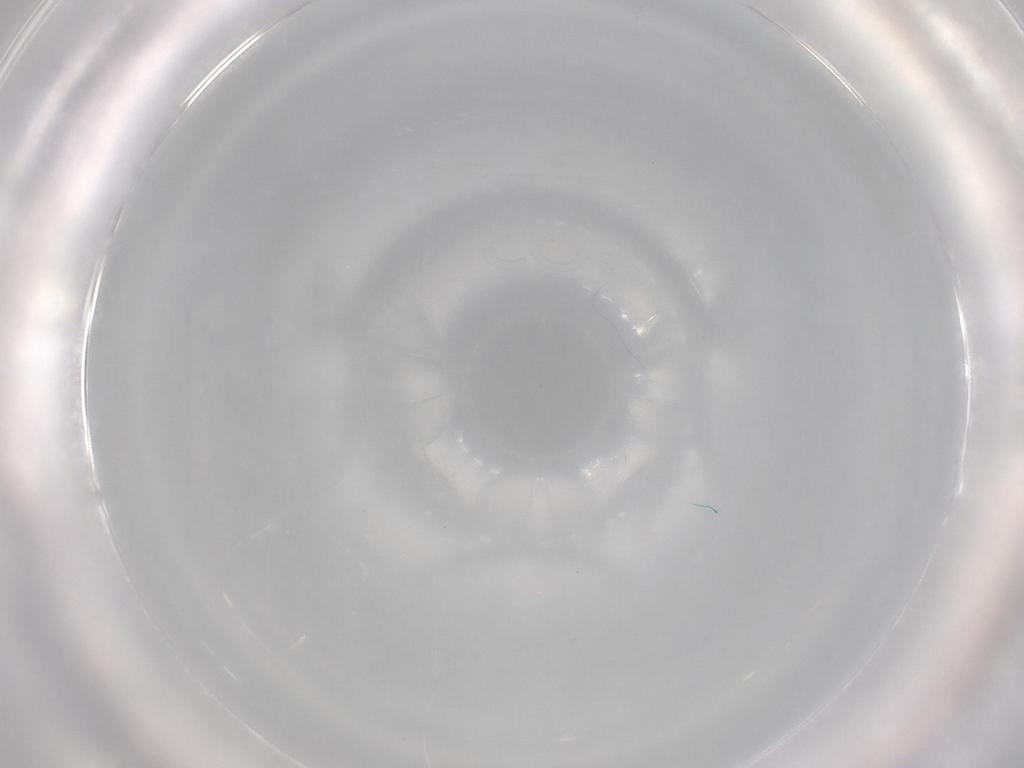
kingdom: Animalia
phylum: Arthropoda
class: Insecta
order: Diptera
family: Psychodidae
